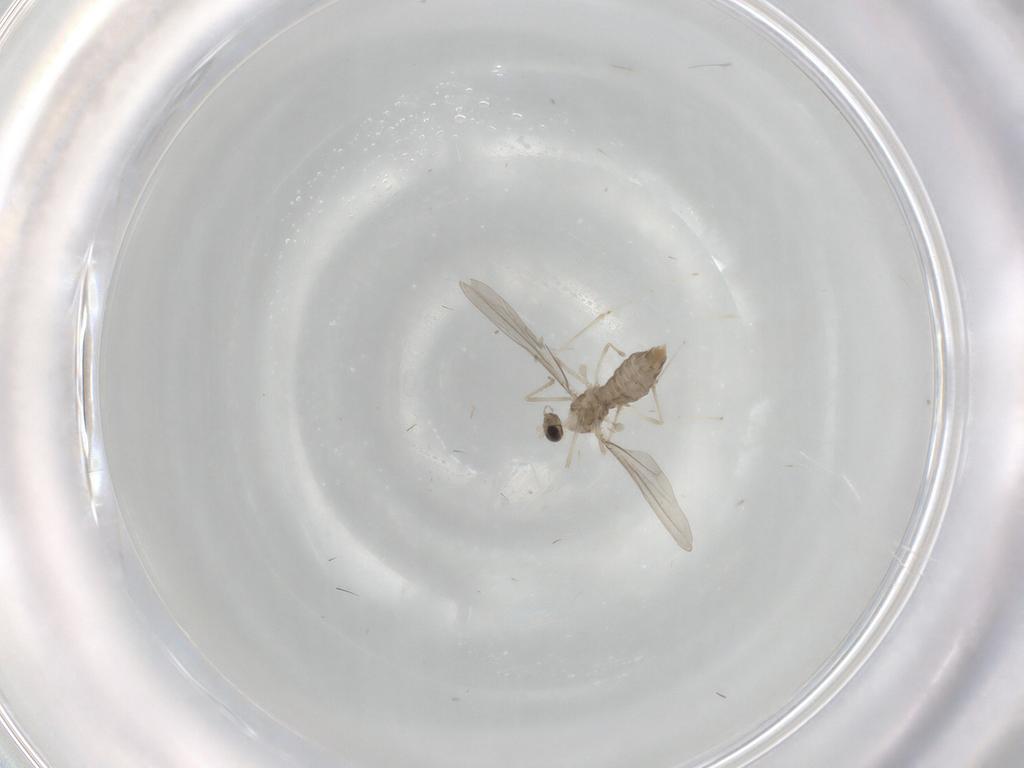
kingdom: Animalia
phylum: Arthropoda
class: Insecta
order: Diptera
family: Cecidomyiidae
